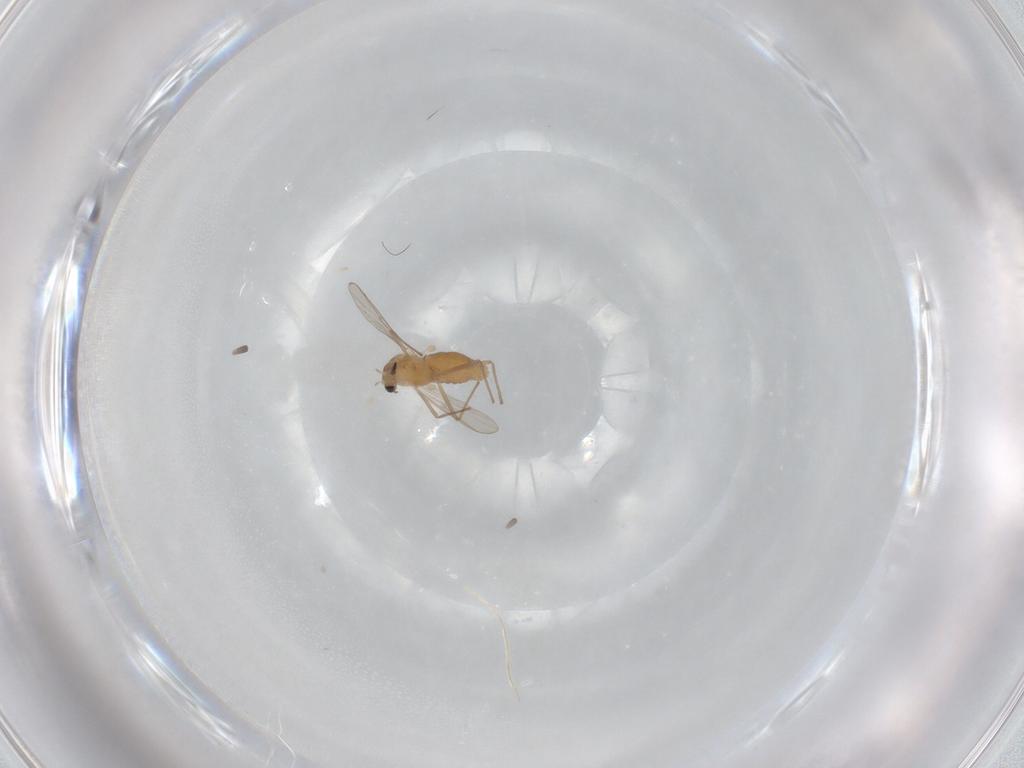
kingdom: Animalia
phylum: Arthropoda
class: Insecta
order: Diptera
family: Chironomidae
